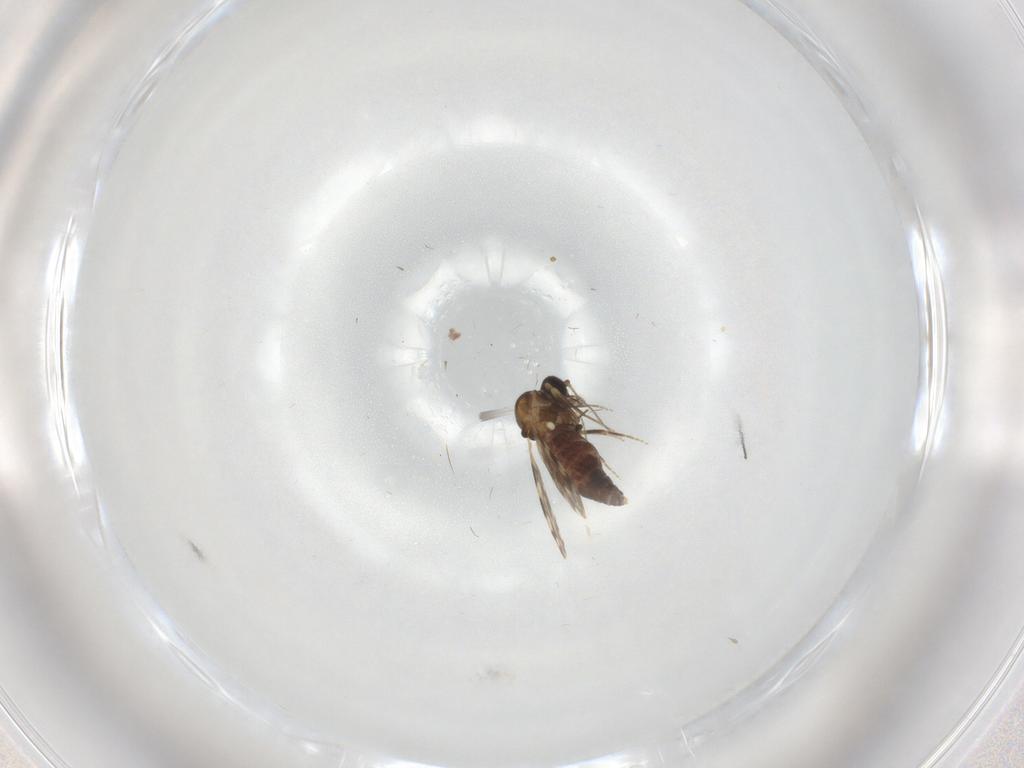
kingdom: Animalia
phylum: Arthropoda
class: Insecta
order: Diptera
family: Ceratopogonidae
